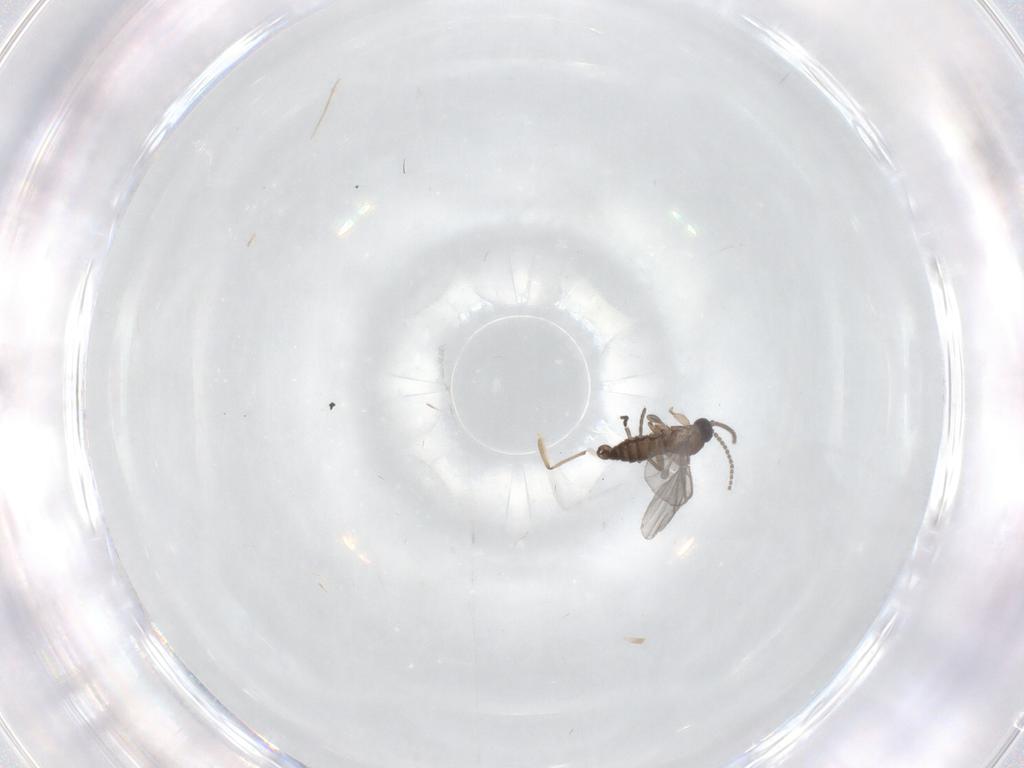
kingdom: Animalia
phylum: Arthropoda
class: Insecta
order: Diptera
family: Sciaridae
